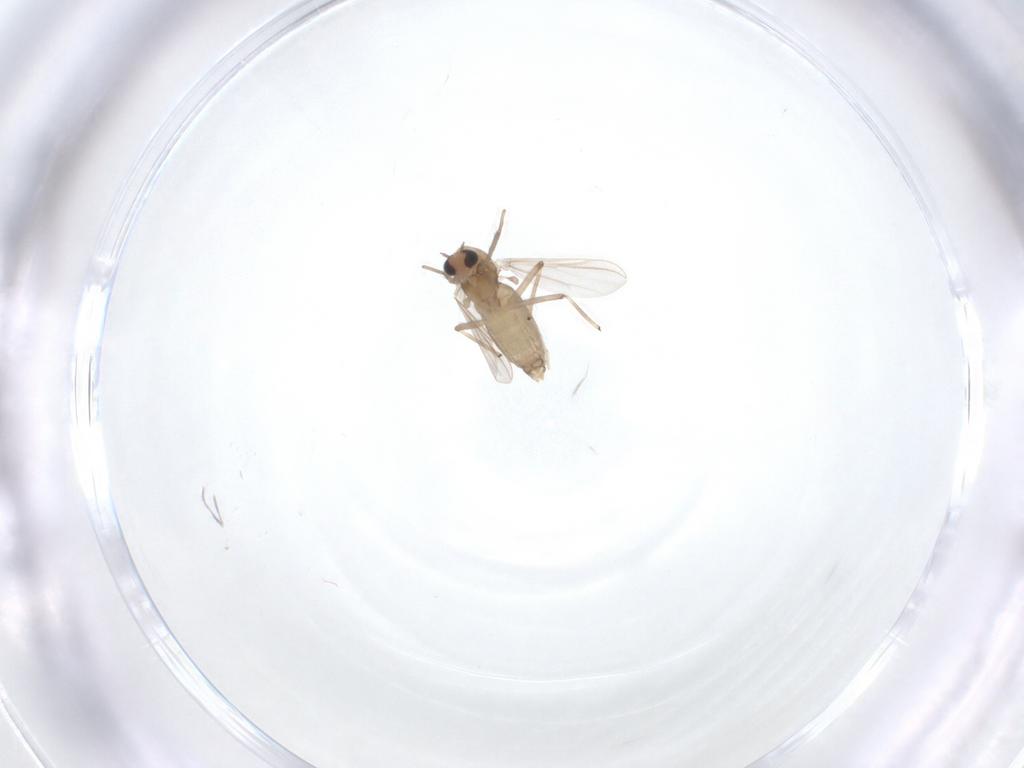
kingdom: Animalia
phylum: Arthropoda
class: Insecta
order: Diptera
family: Chironomidae
